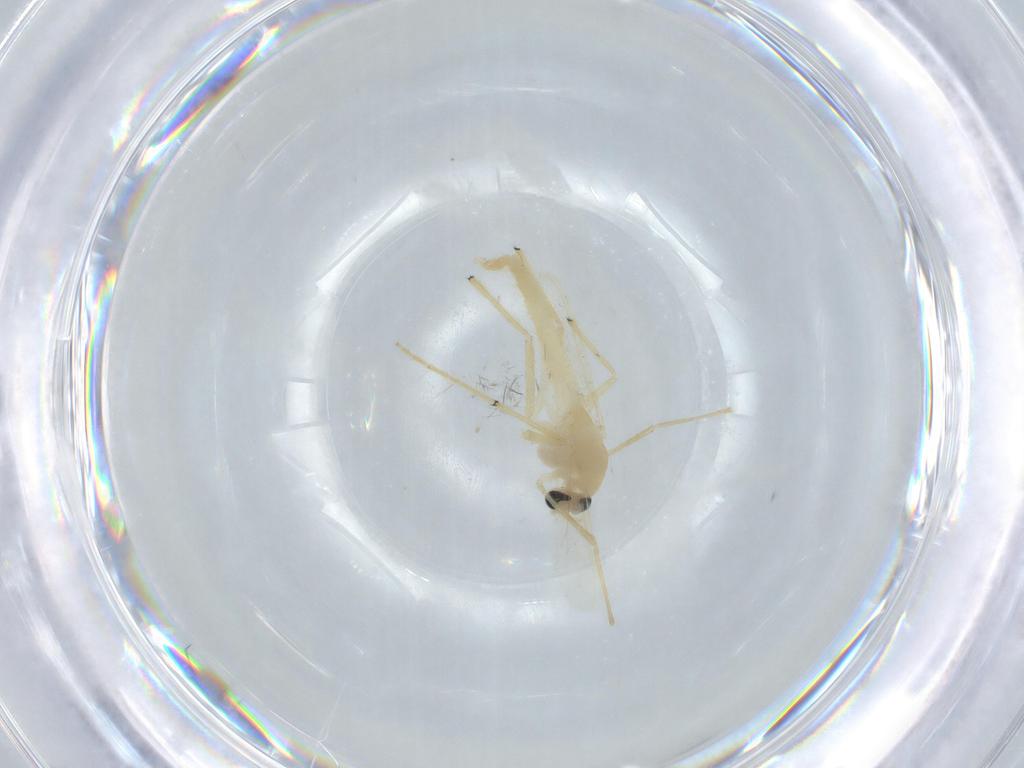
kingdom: Animalia
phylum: Arthropoda
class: Insecta
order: Diptera
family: Chironomidae
